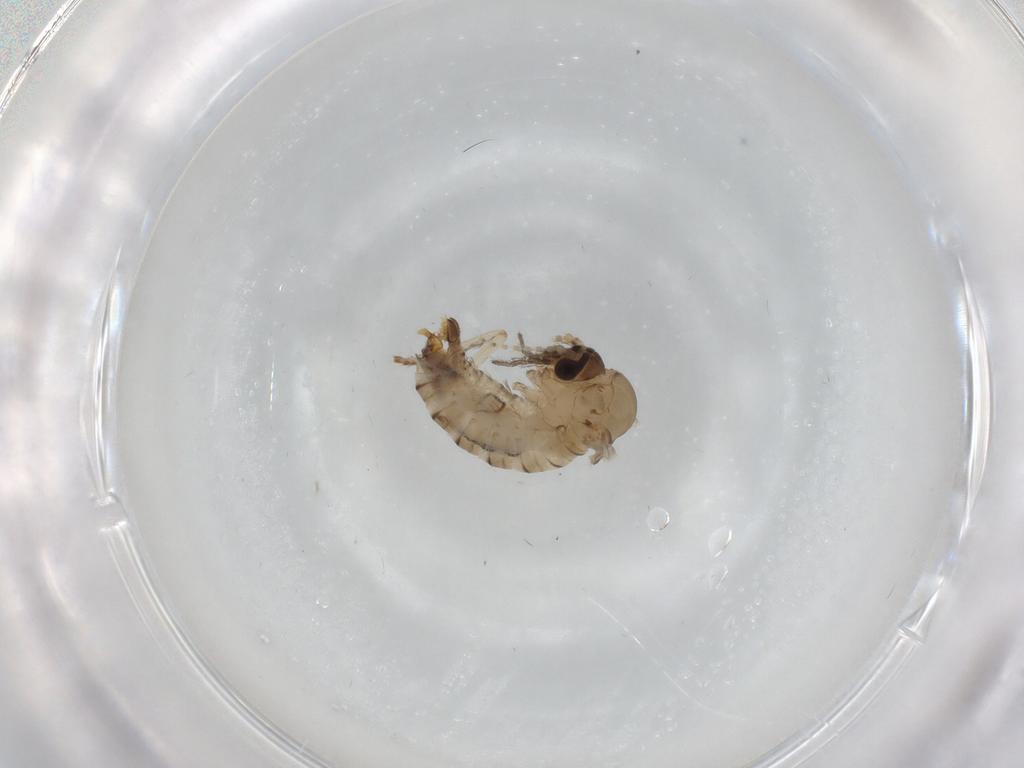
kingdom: Animalia
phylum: Arthropoda
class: Insecta
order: Diptera
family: Psychodidae
